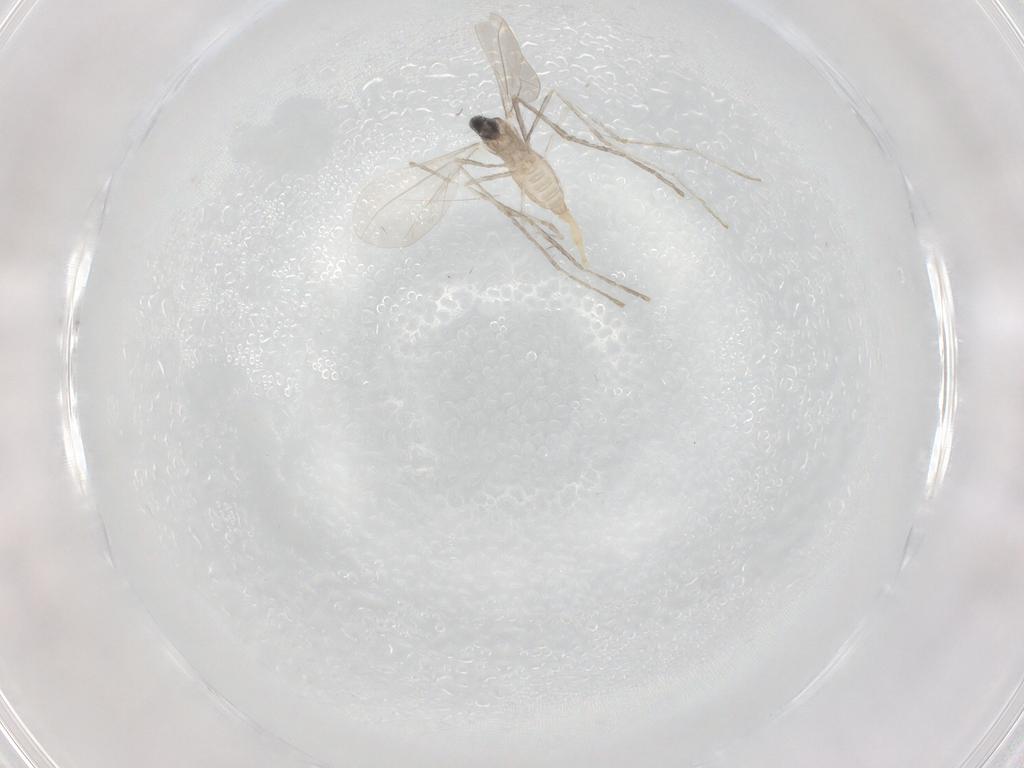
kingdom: Animalia
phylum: Arthropoda
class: Insecta
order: Diptera
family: Cecidomyiidae
